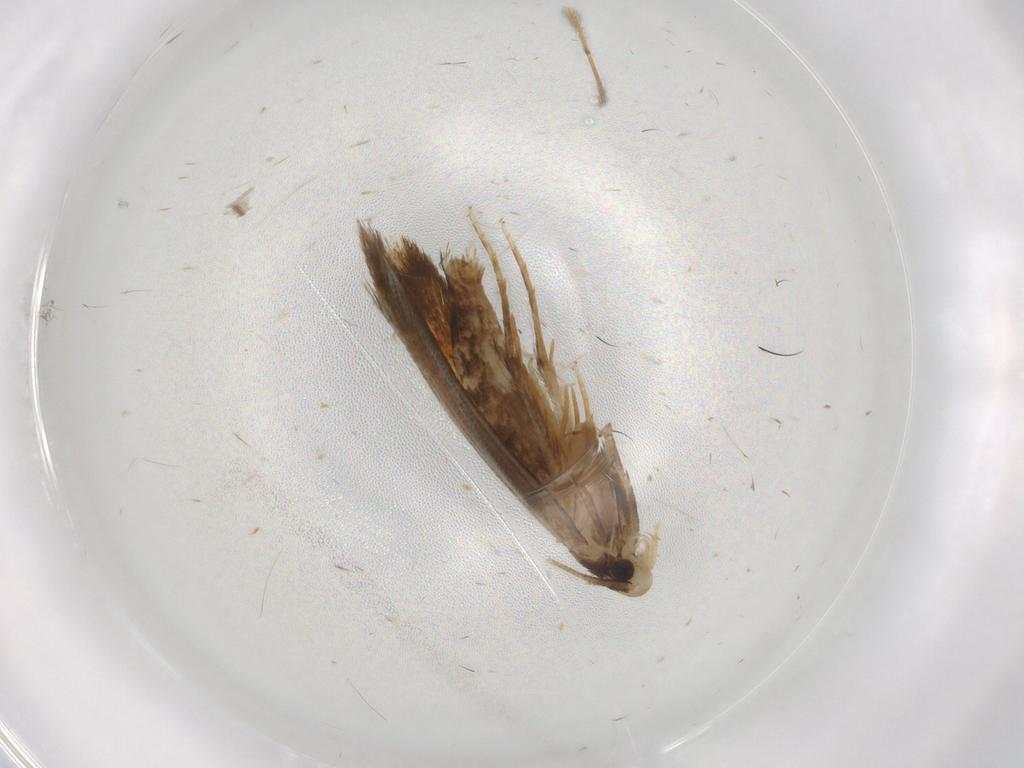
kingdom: Animalia
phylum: Arthropoda
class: Insecta
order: Lepidoptera
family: Tineidae
